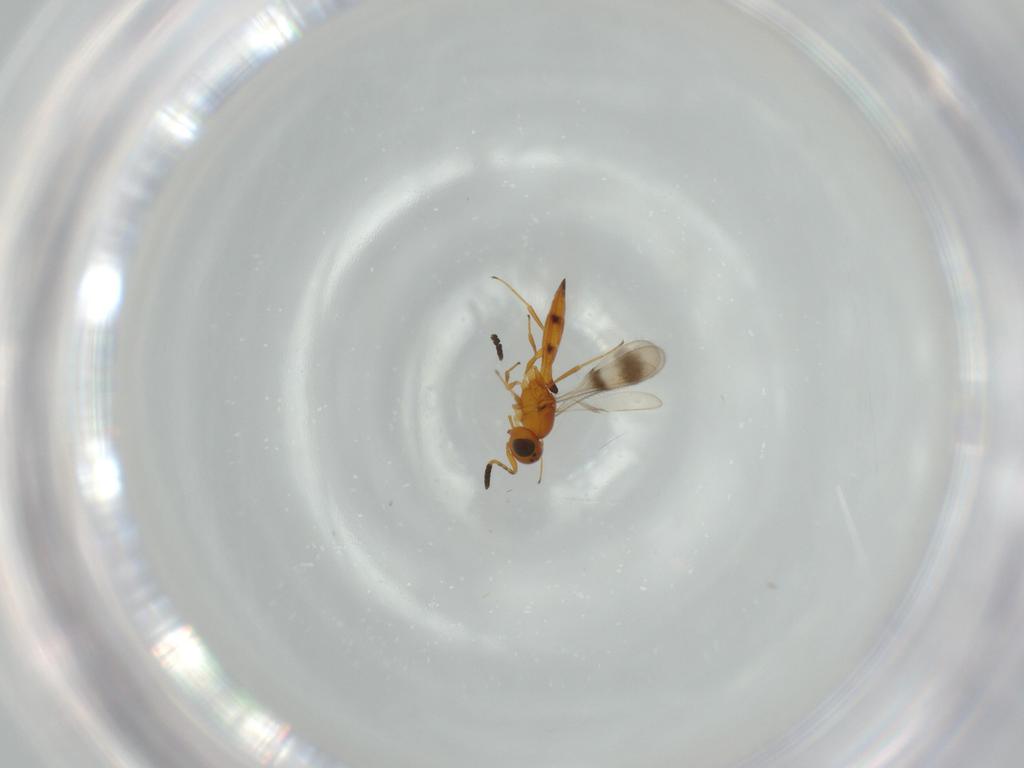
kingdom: Animalia
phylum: Arthropoda
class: Insecta
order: Hymenoptera
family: Scelionidae
